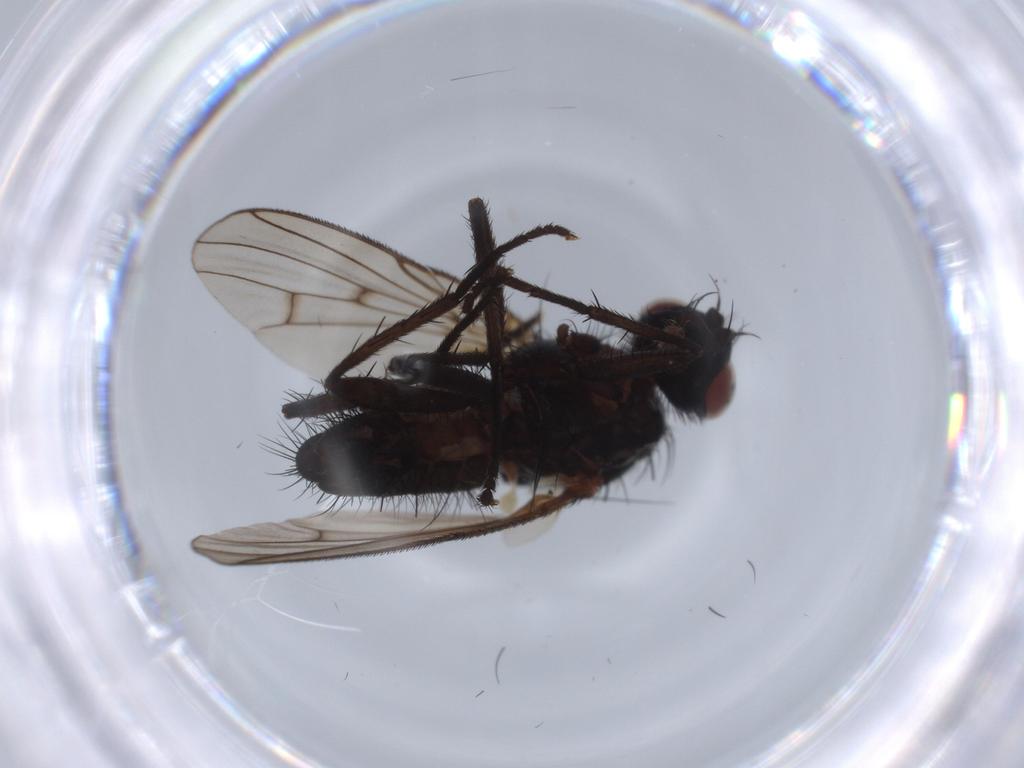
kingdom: Animalia
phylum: Arthropoda
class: Insecta
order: Diptera
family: Anthomyiidae
